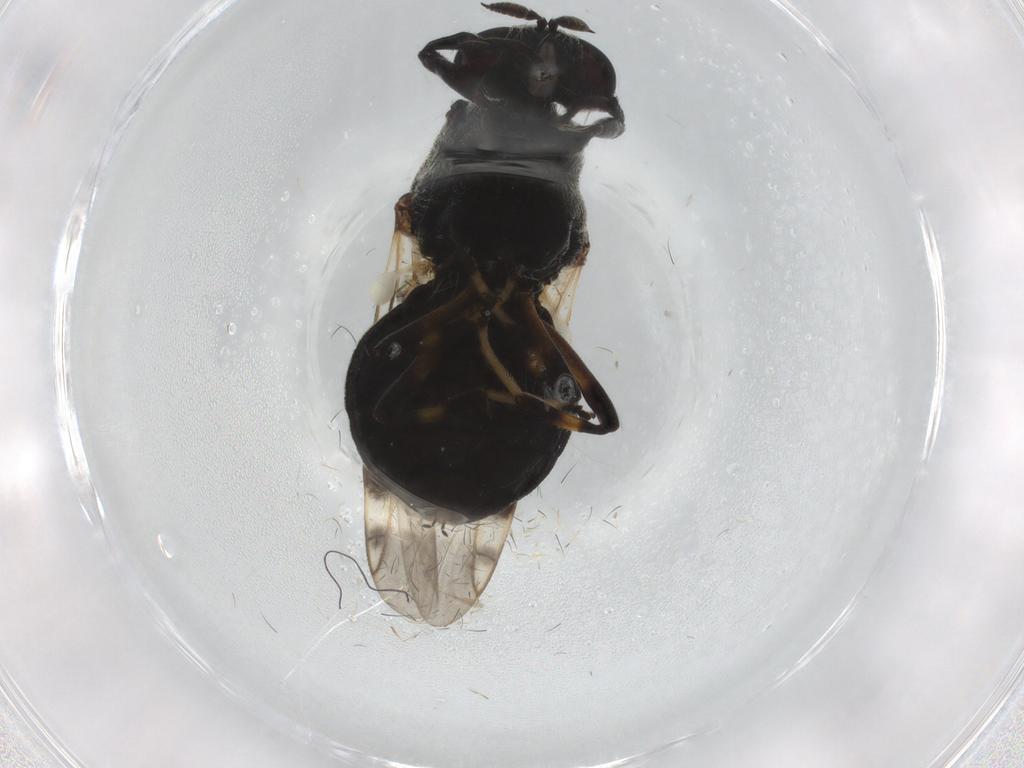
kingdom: Animalia
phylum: Arthropoda
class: Insecta
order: Diptera
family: Stratiomyidae
